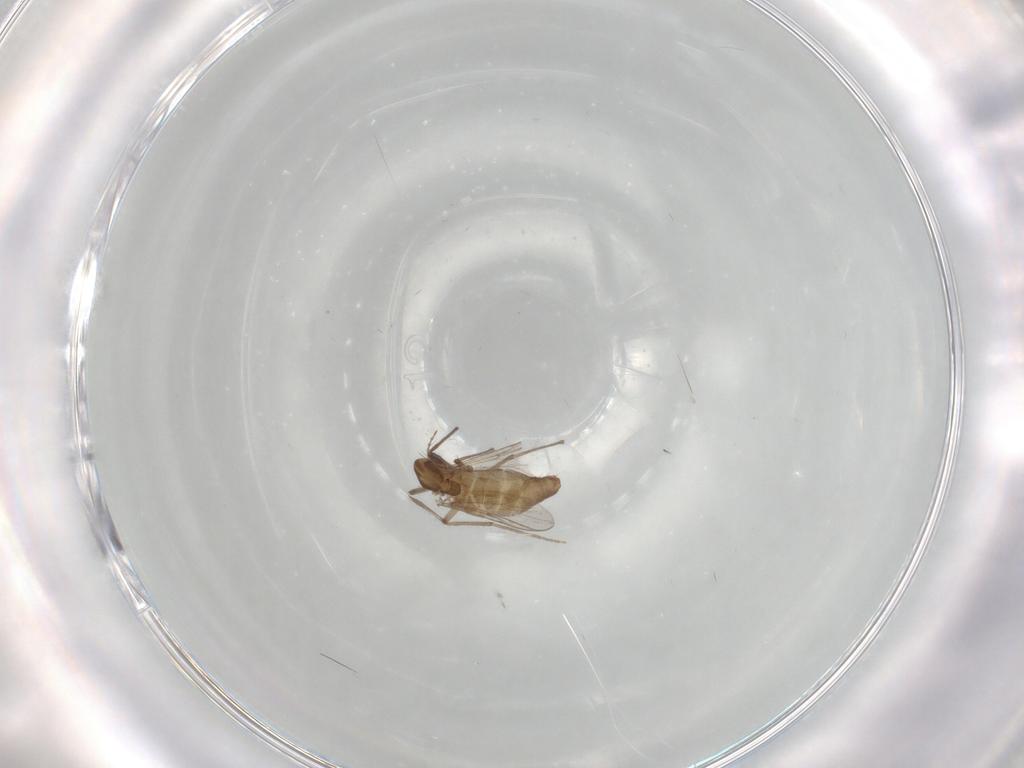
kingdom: Animalia
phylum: Arthropoda
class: Insecta
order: Diptera
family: Chironomidae
